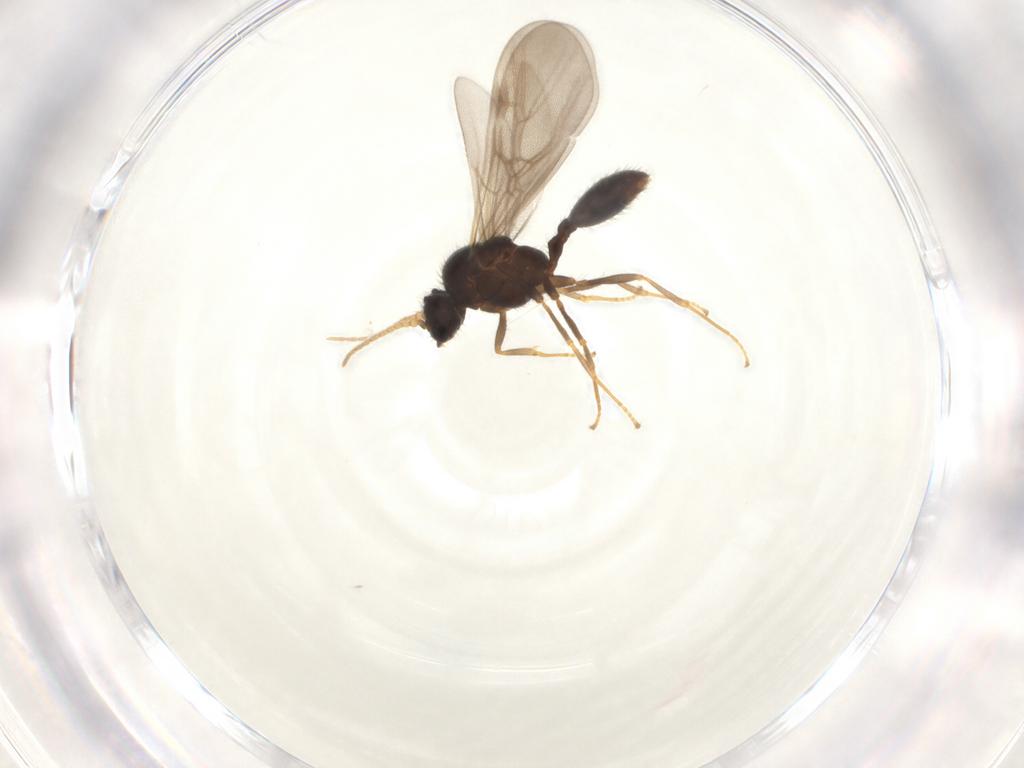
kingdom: Animalia
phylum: Arthropoda
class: Insecta
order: Hymenoptera
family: Formicidae
